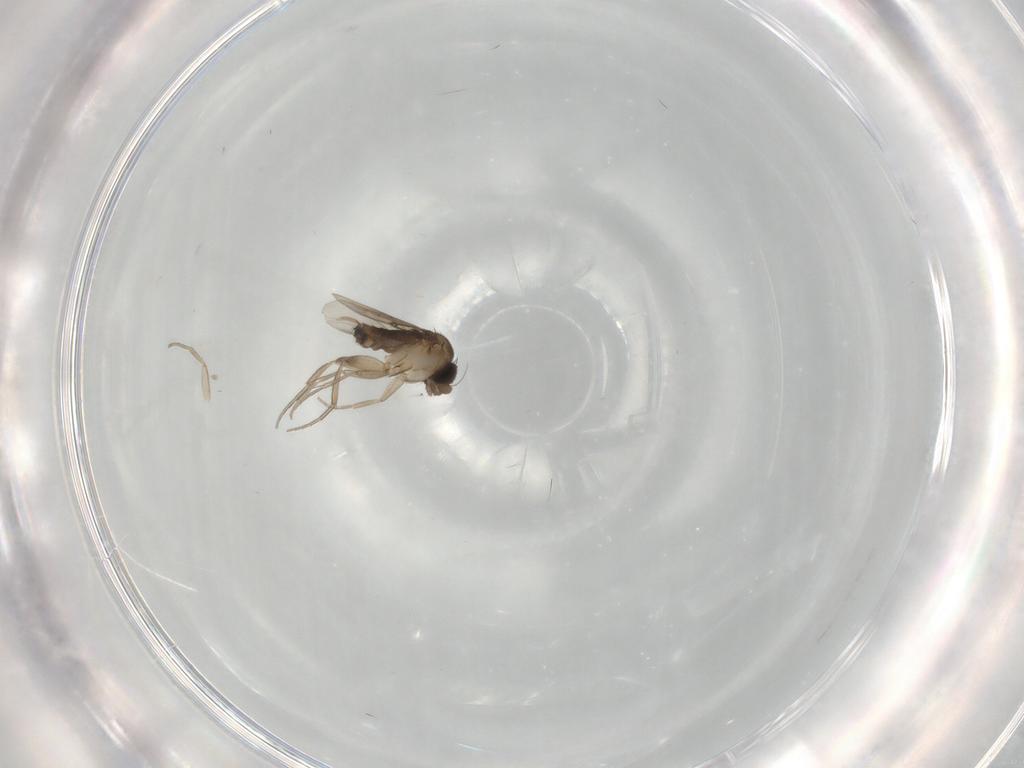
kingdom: Animalia
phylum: Arthropoda
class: Insecta
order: Diptera
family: Phoridae
